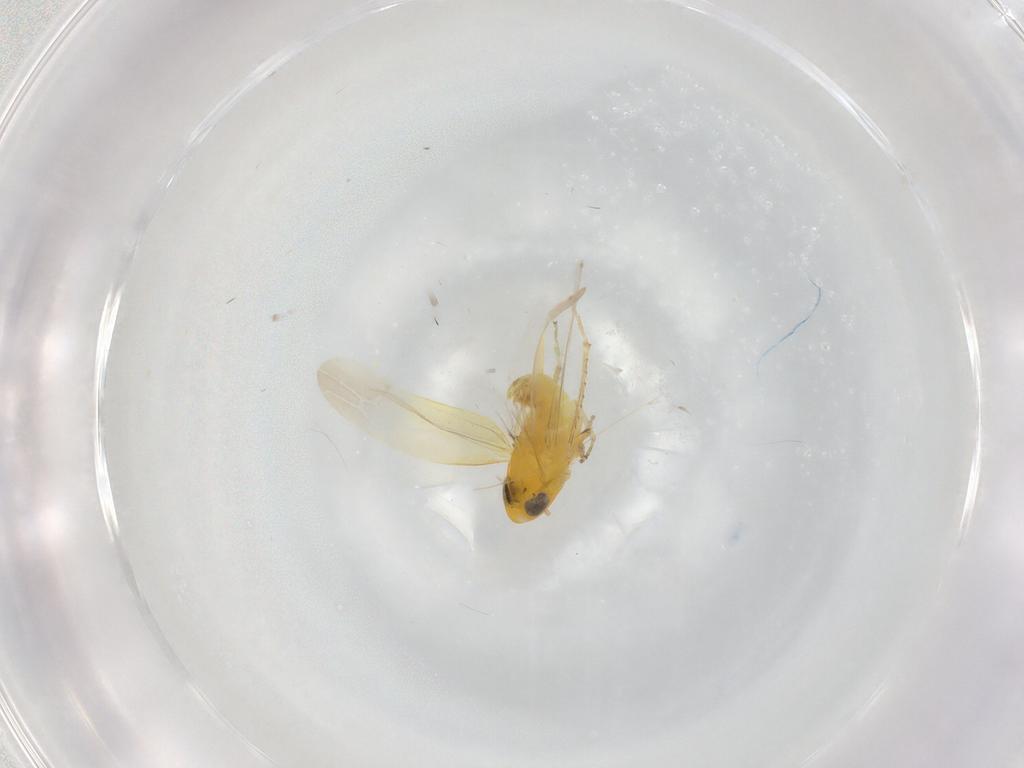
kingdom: Animalia
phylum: Arthropoda
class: Insecta
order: Hemiptera
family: Cicadellidae
